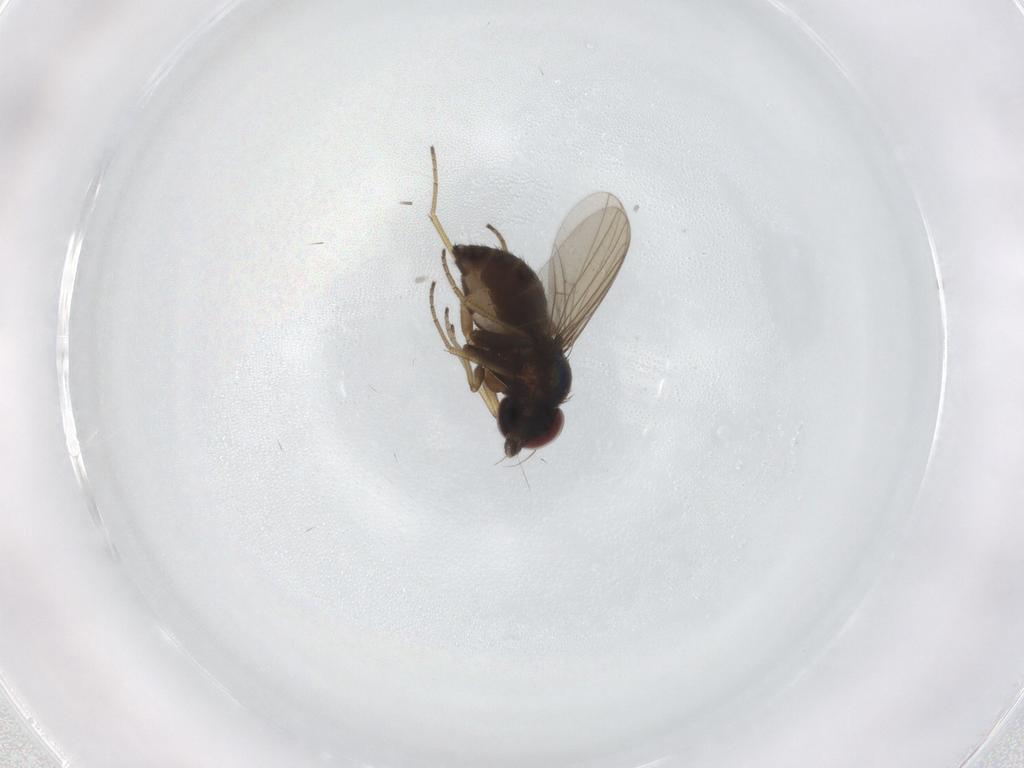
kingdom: Animalia
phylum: Arthropoda
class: Insecta
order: Diptera
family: Dolichopodidae
